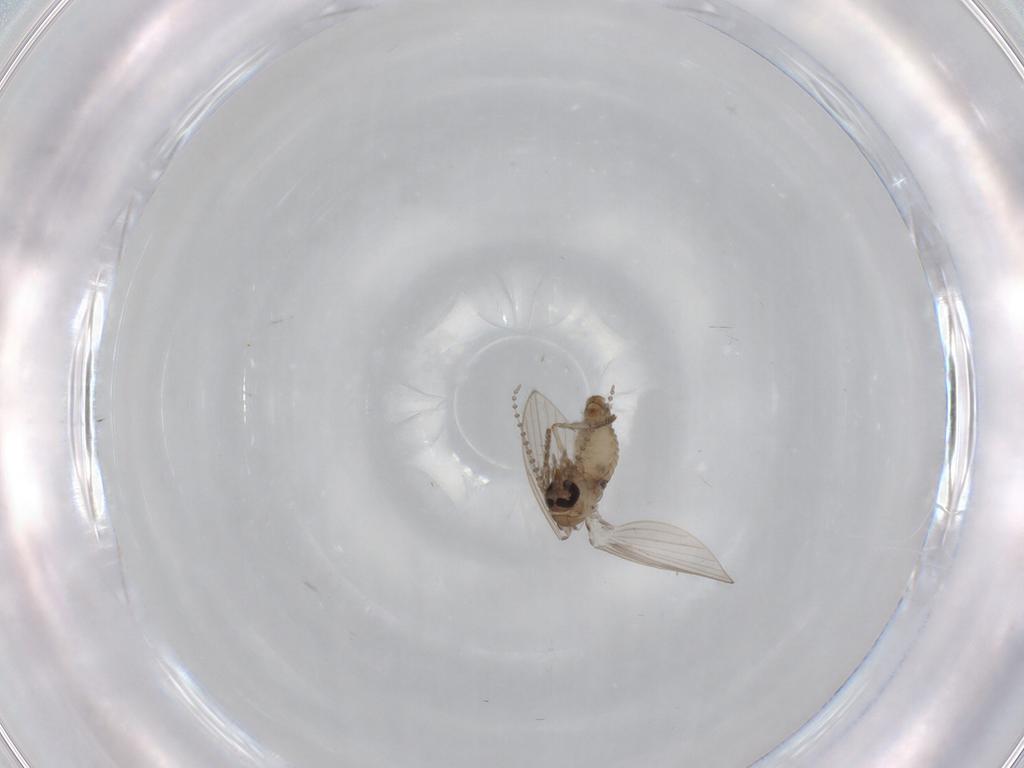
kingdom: Animalia
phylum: Arthropoda
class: Insecta
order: Diptera
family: Psychodidae
